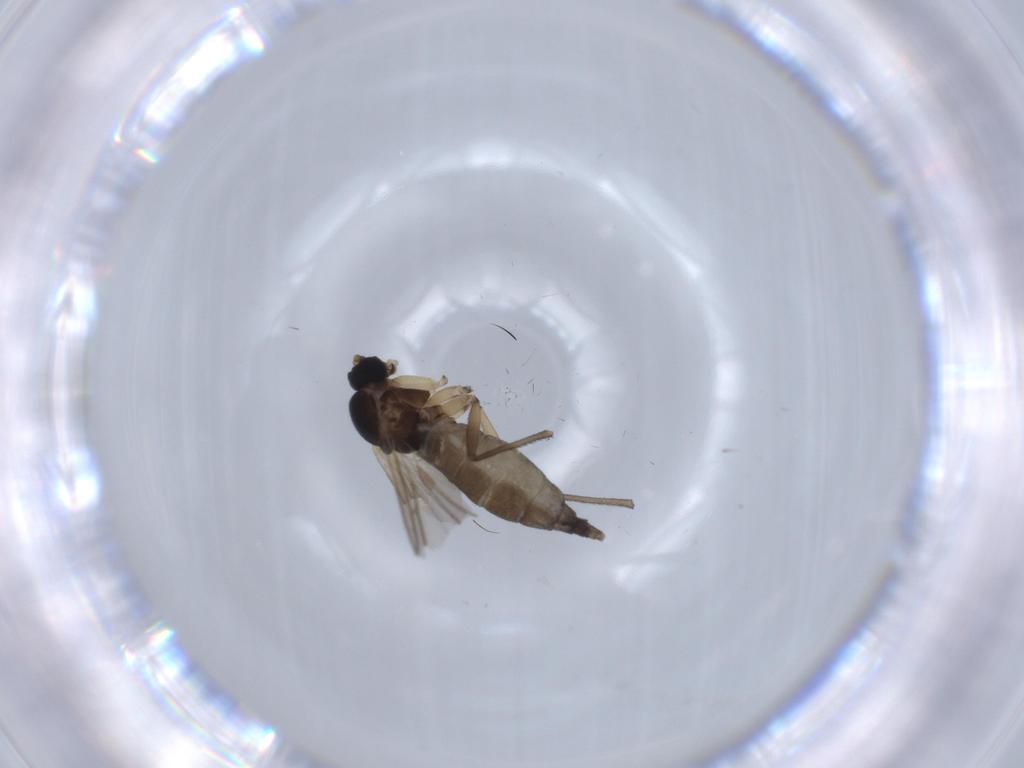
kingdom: Animalia
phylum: Arthropoda
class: Insecta
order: Diptera
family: Sciaridae
